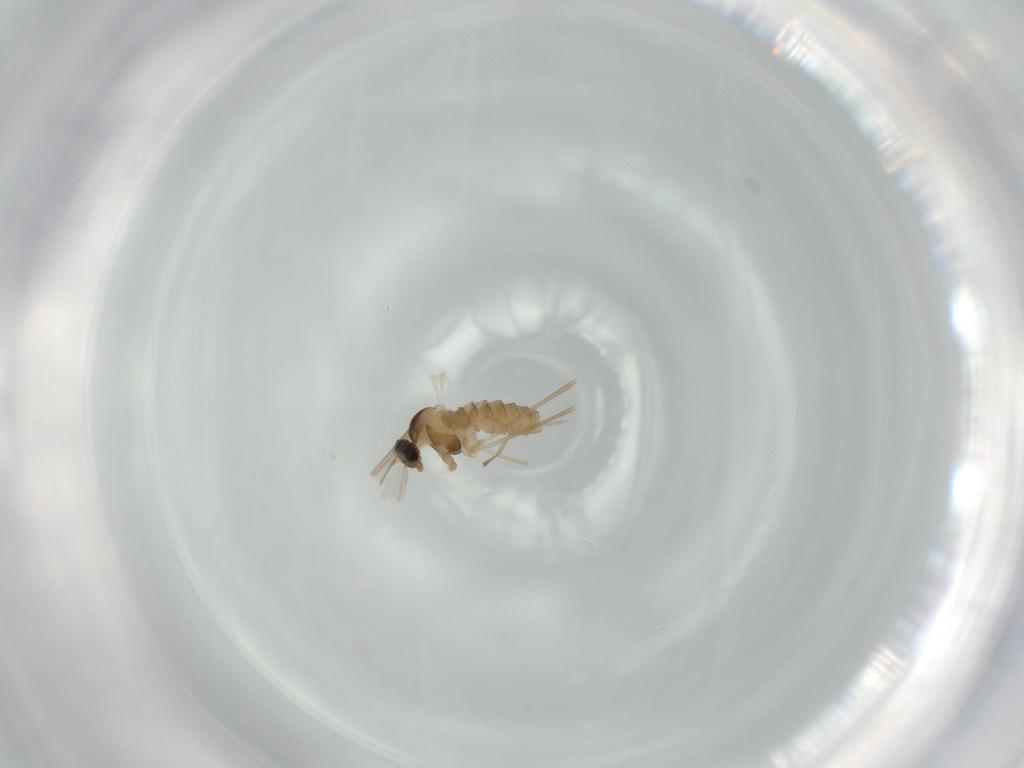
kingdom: Animalia
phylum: Arthropoda
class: Insecta
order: Diptera
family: Cecidomyiidae
